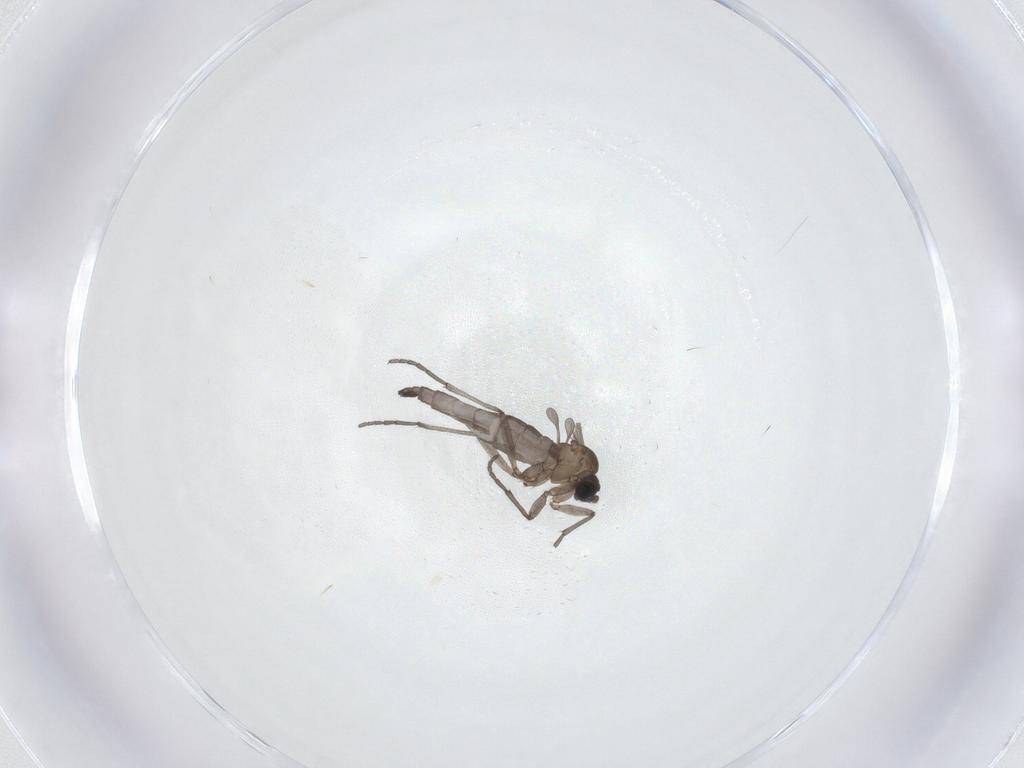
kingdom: Animalia
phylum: Arthropoda
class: Insecta
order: Diptera
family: Sciaridae
